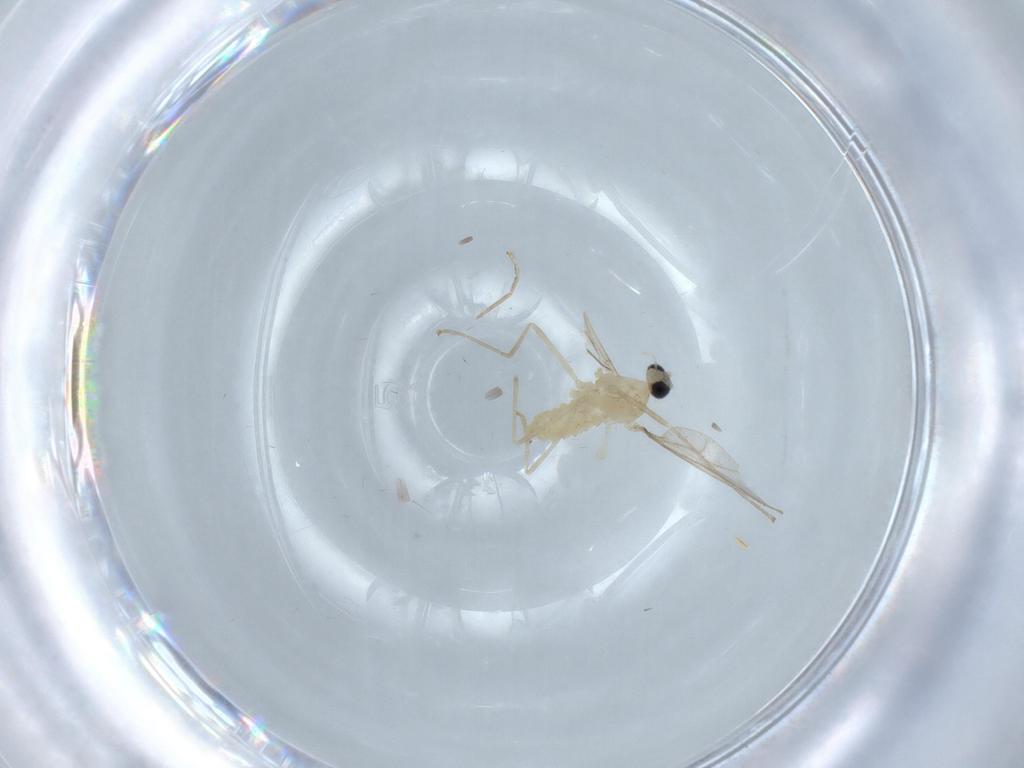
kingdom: Animalia
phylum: Arthropoda
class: Insecta
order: Diptera
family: Cecidomyiidae
